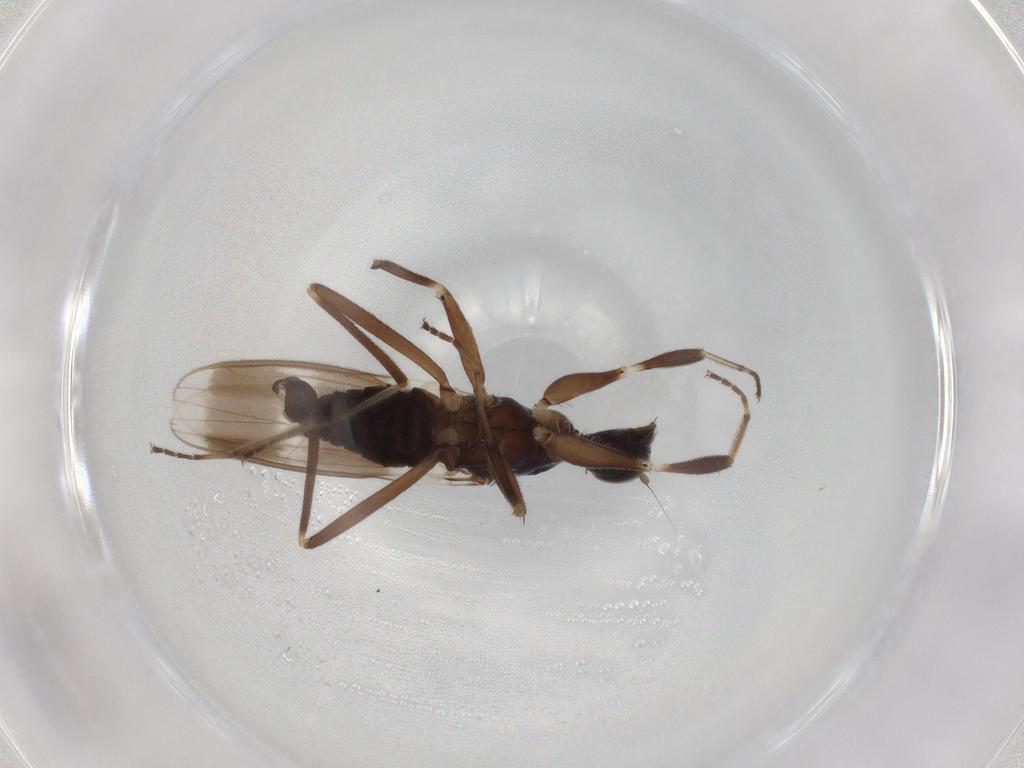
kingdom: Animalia
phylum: Arthropoda
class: Insecta
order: Diptera
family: Hybotidae
